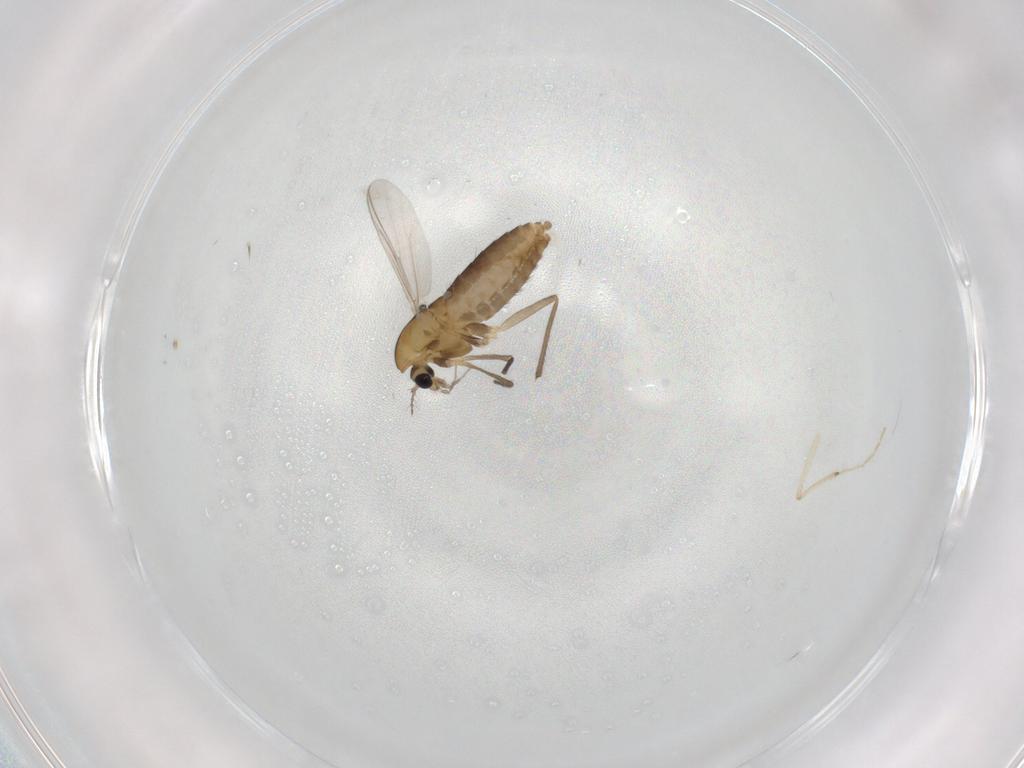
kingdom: Animalia
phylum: Arthropoda
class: Insecta
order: Diptera
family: Chironomidae
